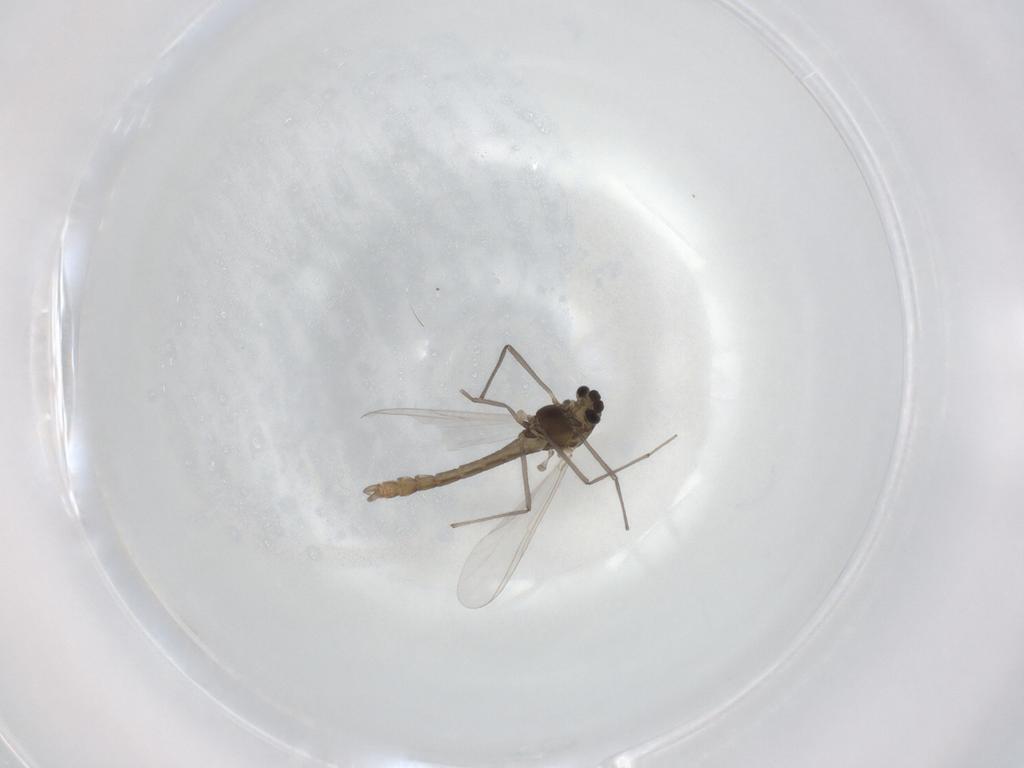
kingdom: Animalia
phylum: Arthropoda
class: Insecta
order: Diptera
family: Chironomidae
